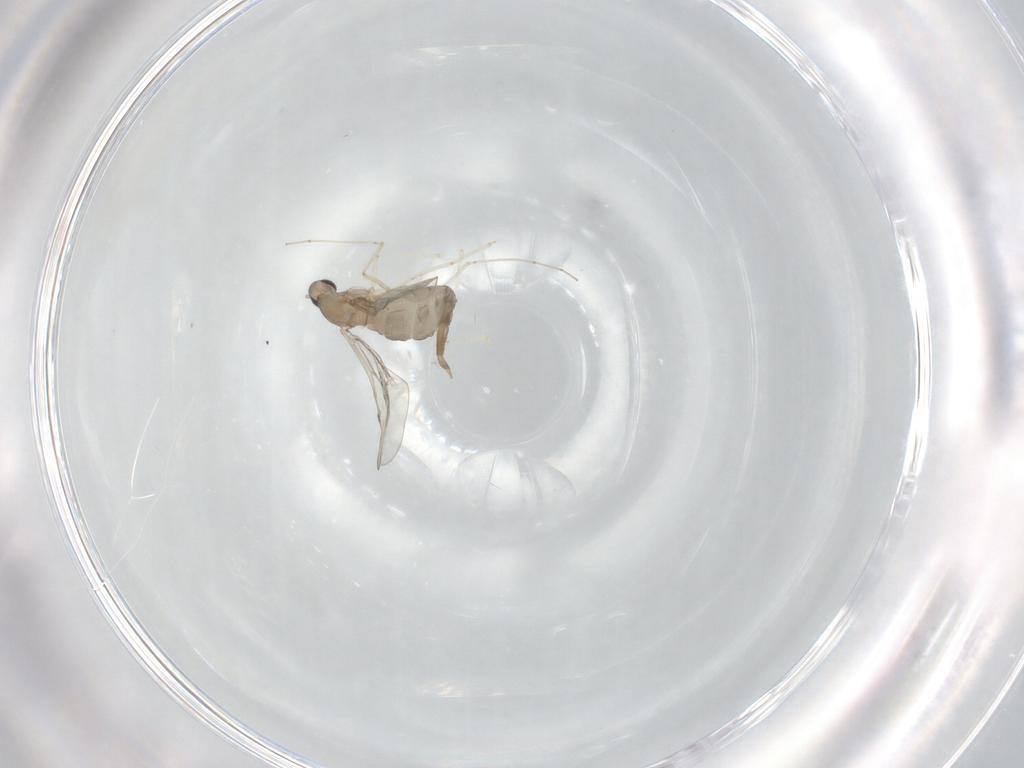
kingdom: Animalia
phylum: Arthropoda
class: Insecta
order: Diptera
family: Cecidomyiidae
